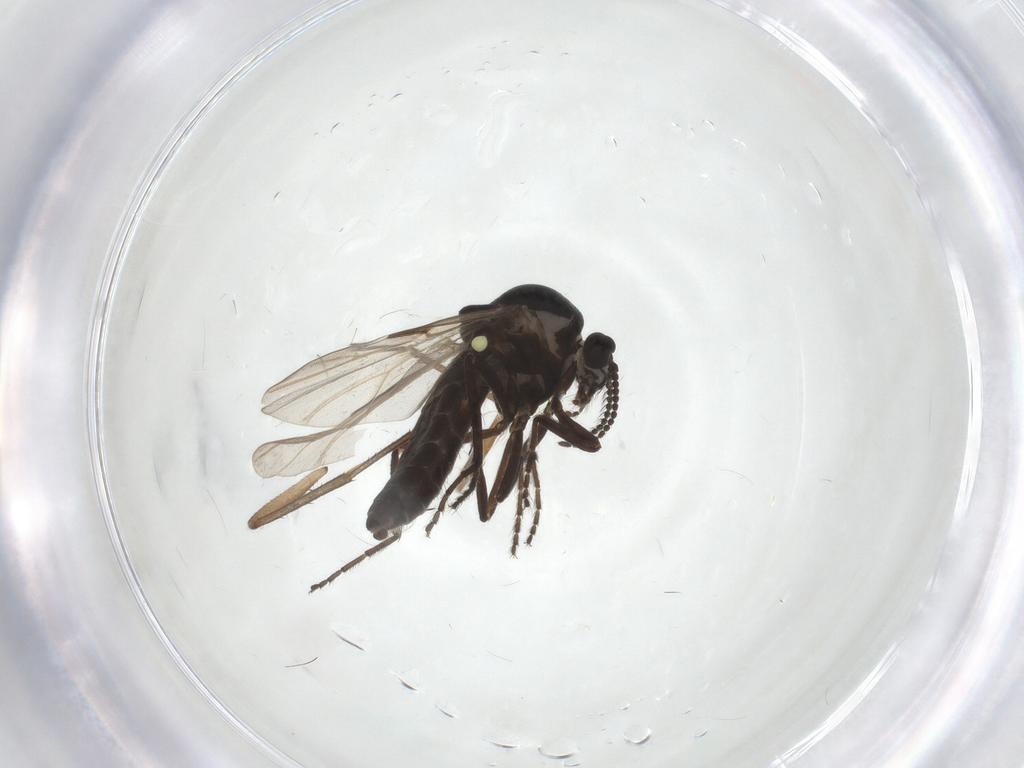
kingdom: Animalia
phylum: Arthropoda
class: Insecta
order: Diptera
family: Sciaridae
